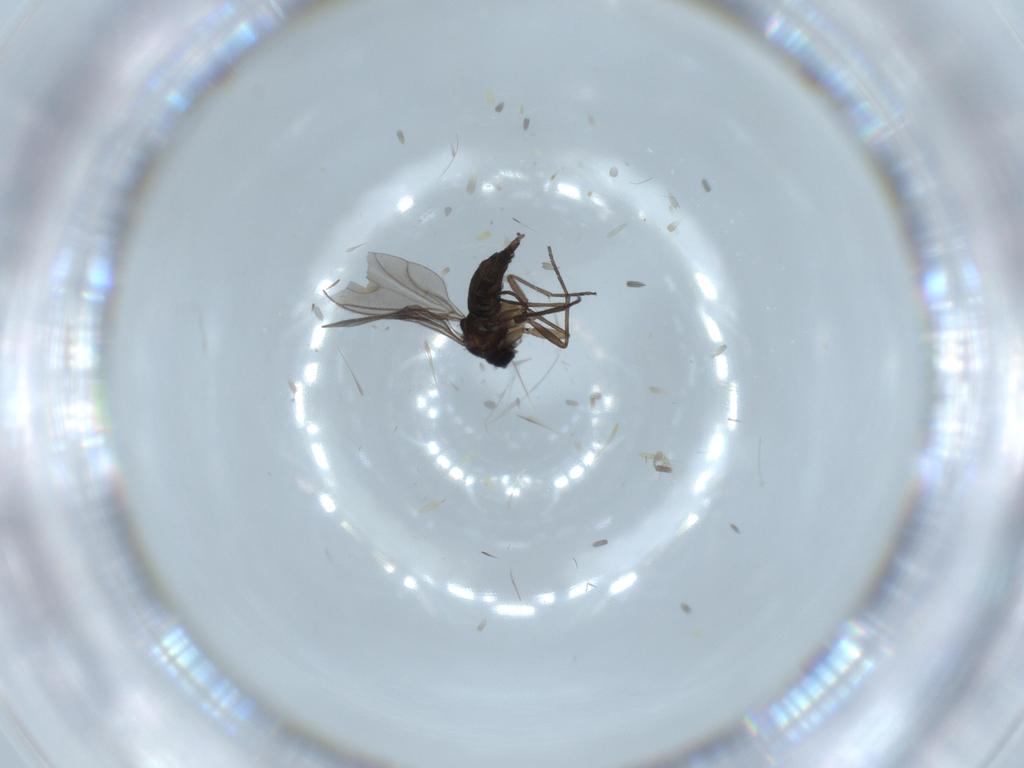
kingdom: Animalia
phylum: Arthropoda
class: Insecta
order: Diptera
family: Sciaridae
